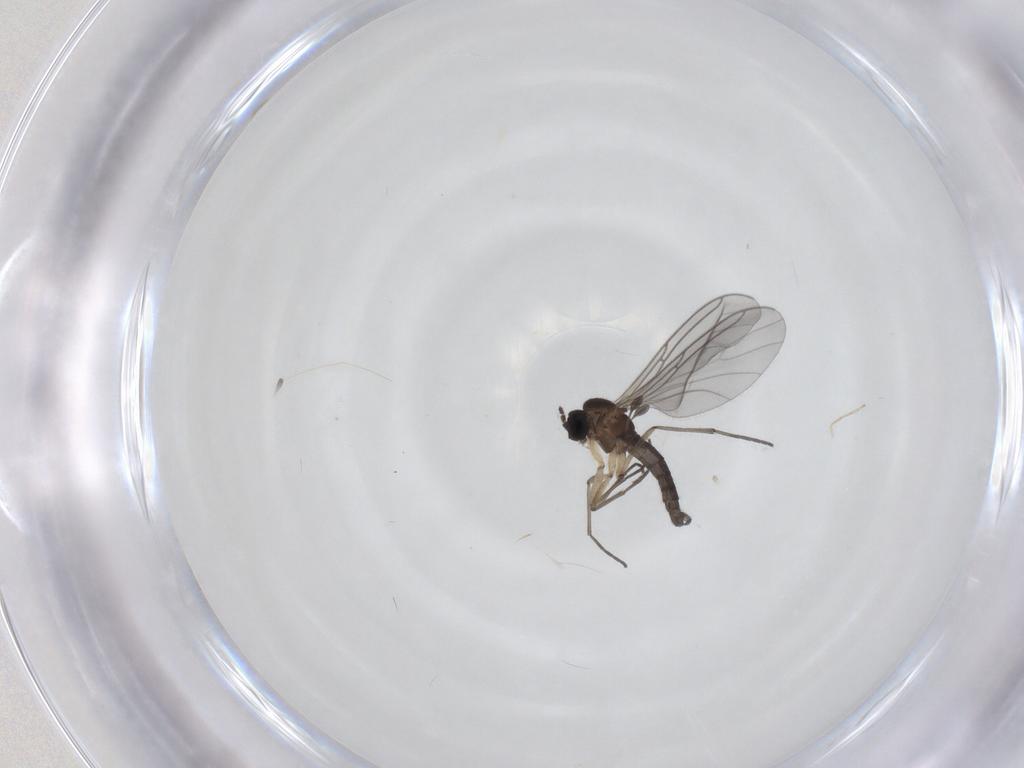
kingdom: Animalia
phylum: Arthropoda
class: Insecta
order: Diptera
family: Sciaridae
